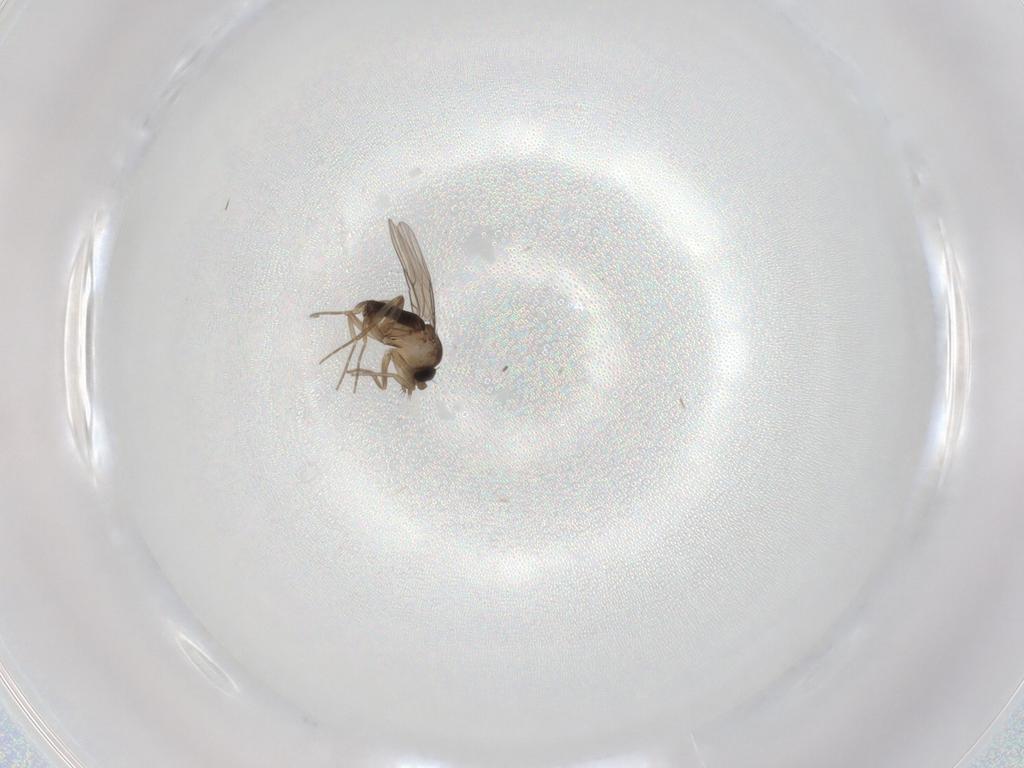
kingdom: Animalia
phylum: Arthropoda
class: Insecta
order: Diptera
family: Phoridae
